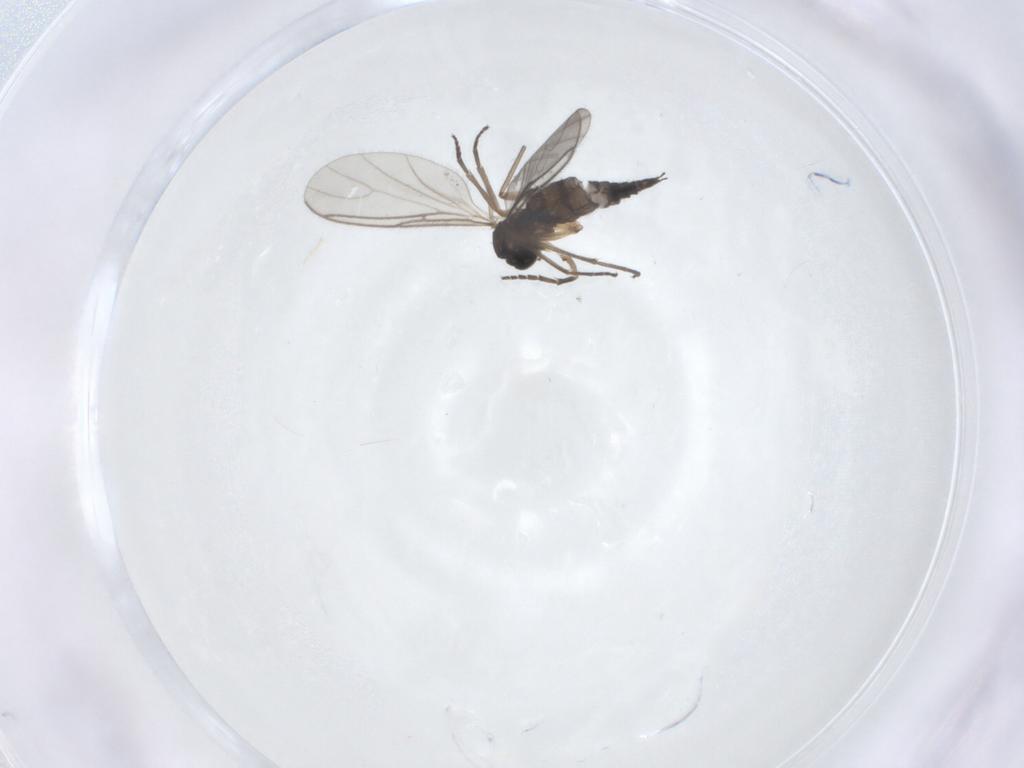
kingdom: Animalia
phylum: Arthropoda
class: Insecta
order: Diptera
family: Sciaridae
